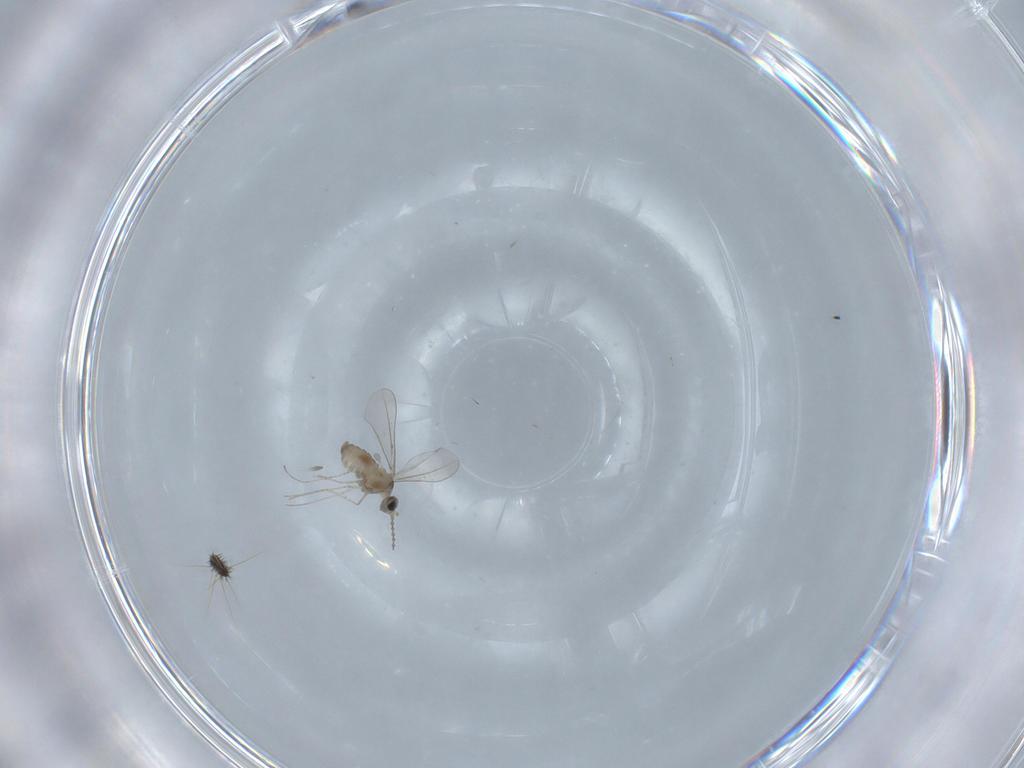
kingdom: Animalia
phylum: Arthropoda
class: Insecta
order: Diptera
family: Cecidomyiidae
